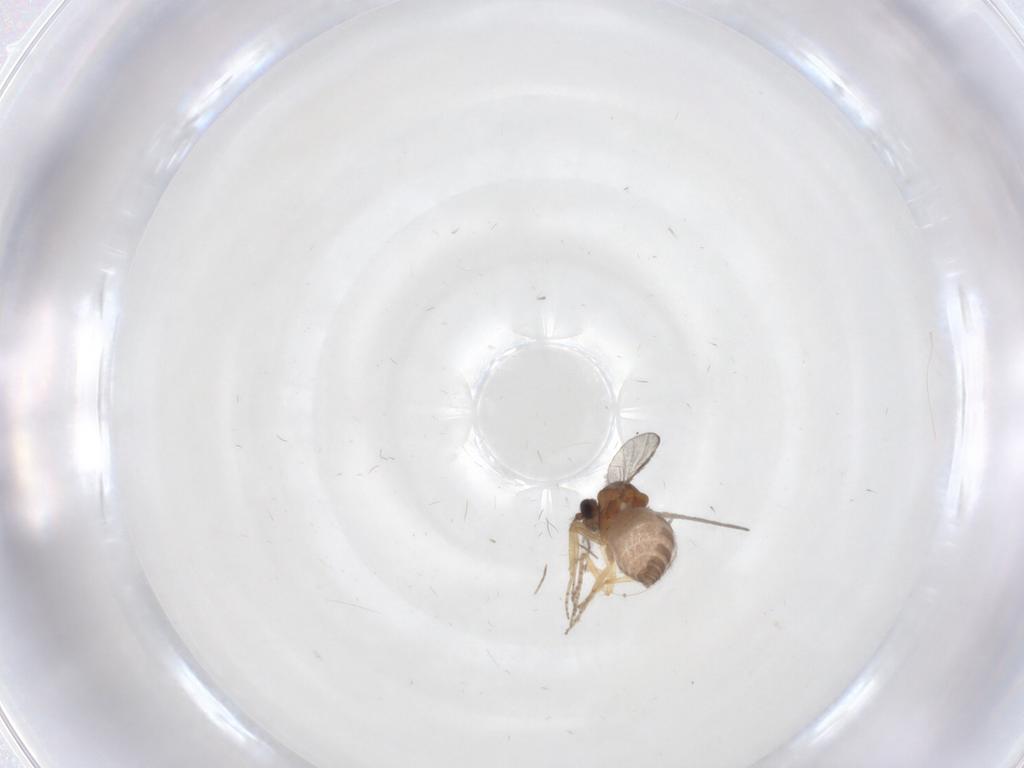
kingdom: Animalia
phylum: Arthropoda
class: Insecta
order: Diptera
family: Ceratopogonidae
